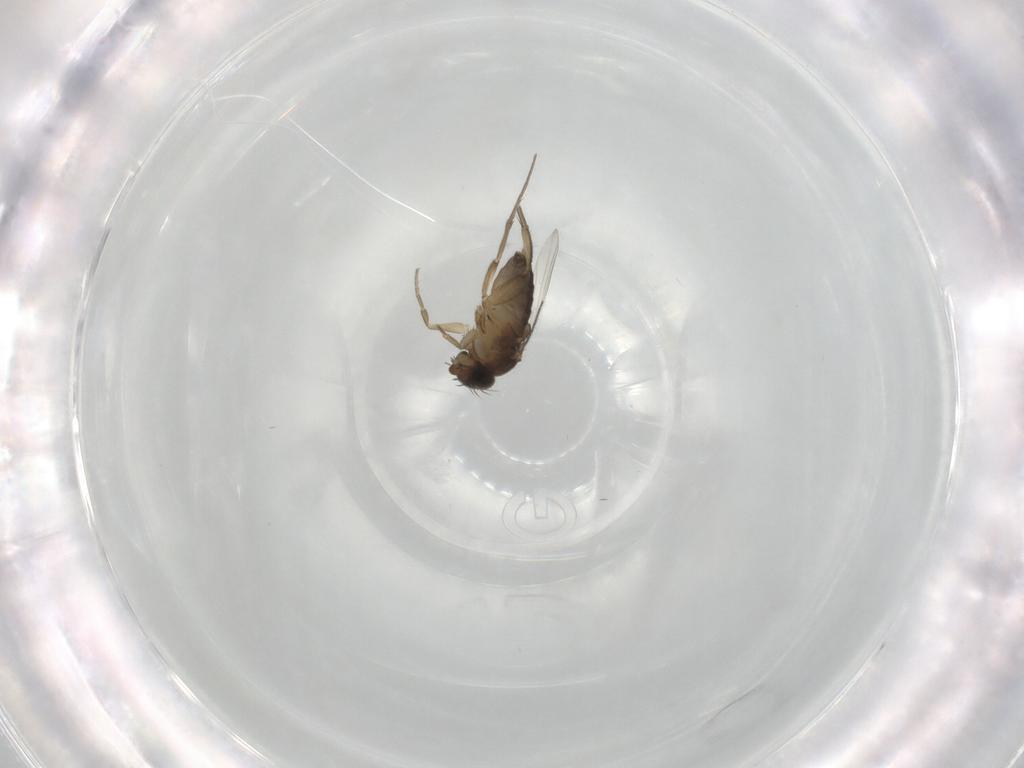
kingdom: Animalia
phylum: Arthropoda
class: Insecta
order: Diptera
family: Phoridae
